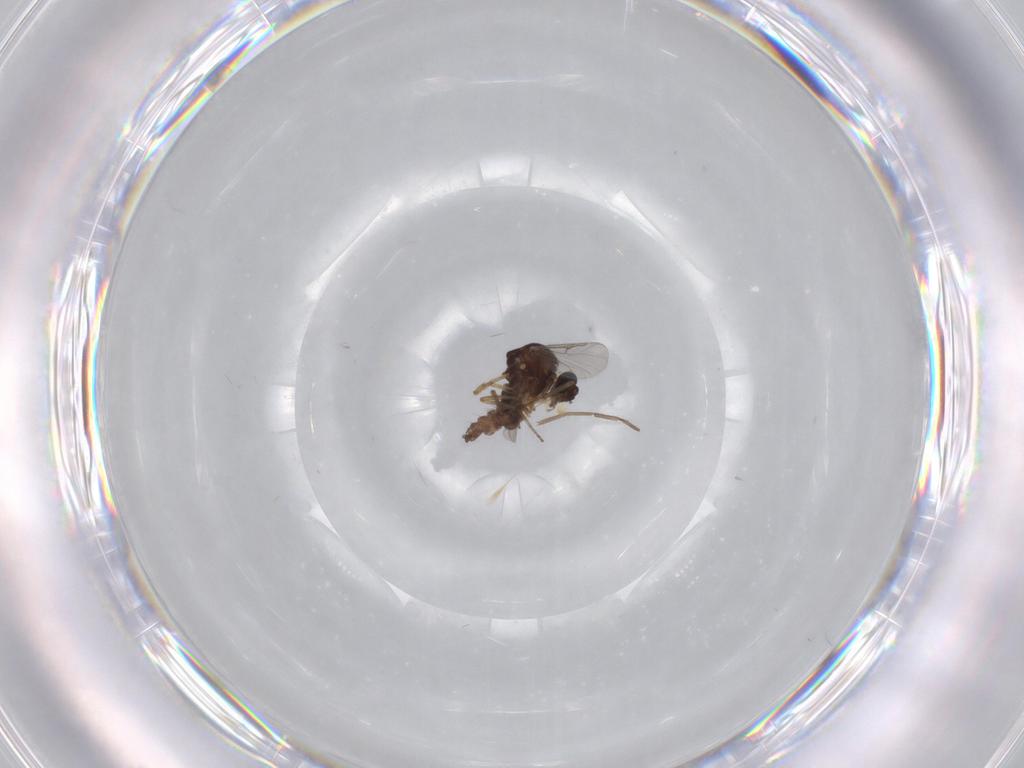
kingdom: Animalia
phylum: Arthropoda
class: Insecta
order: Diptera
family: Ceratopogonidae
